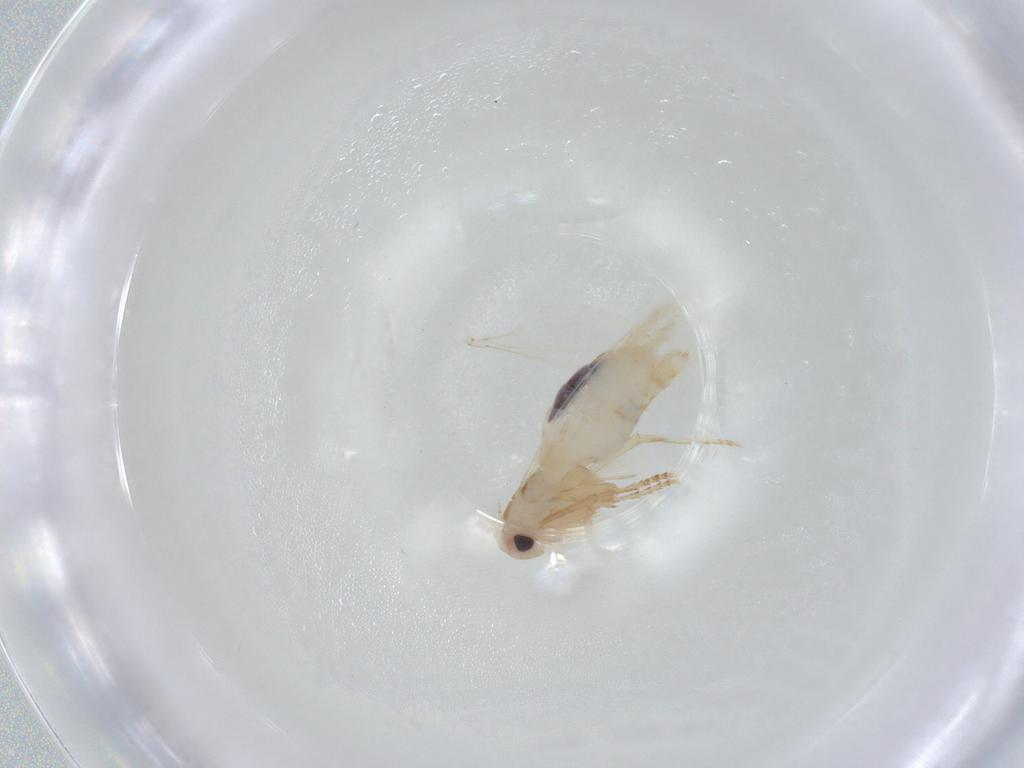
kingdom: Animalia
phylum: Arthropoda
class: Insecta
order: Lepidoptera
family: Bucculatricidae
